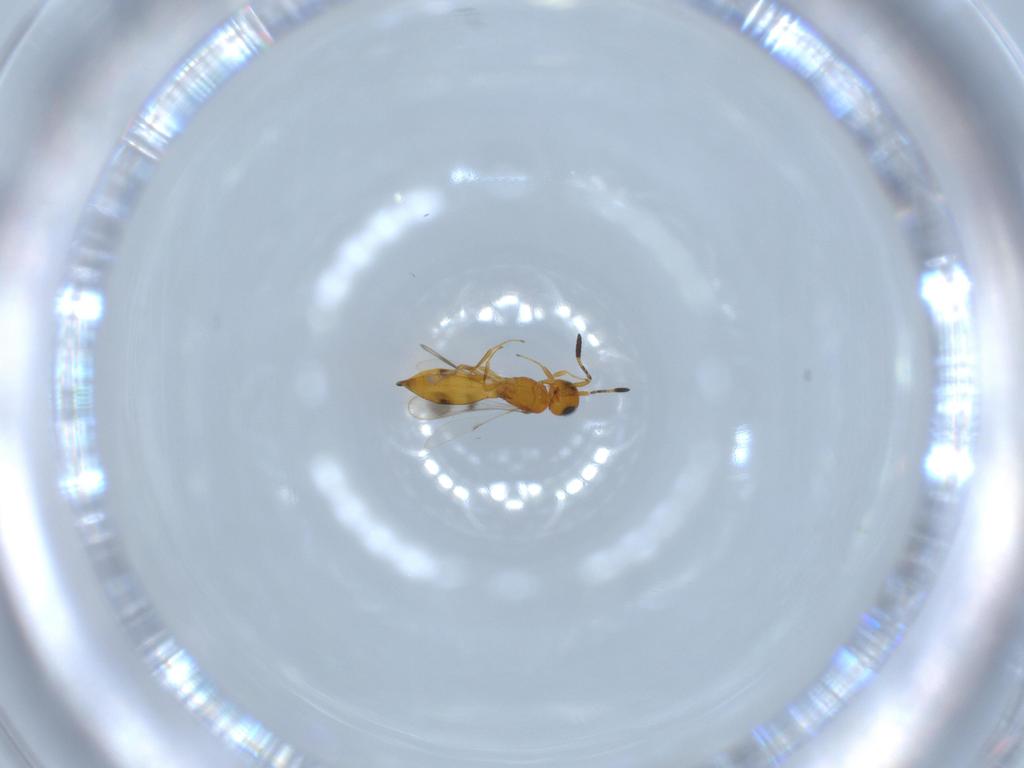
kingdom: Animalia
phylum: Arthropoda
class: Insecta
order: Hymenoptera
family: Scelionidae
